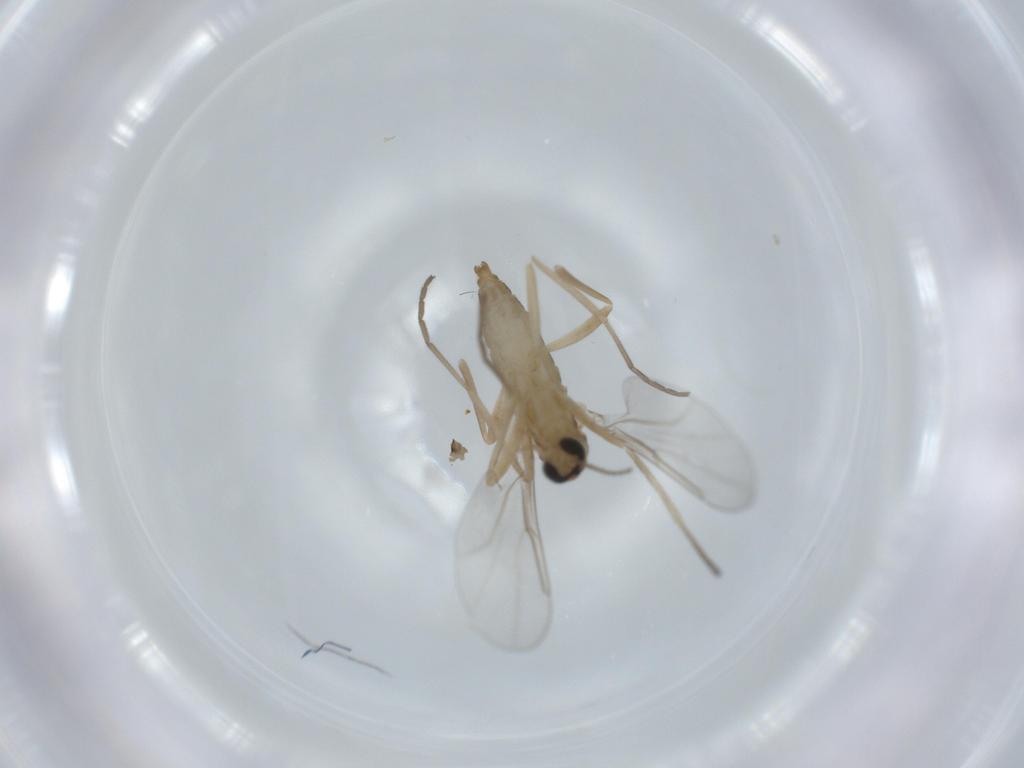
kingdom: Animalia
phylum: Arthropoda
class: Insecta
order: Diptera
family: Cecidomyiidae
